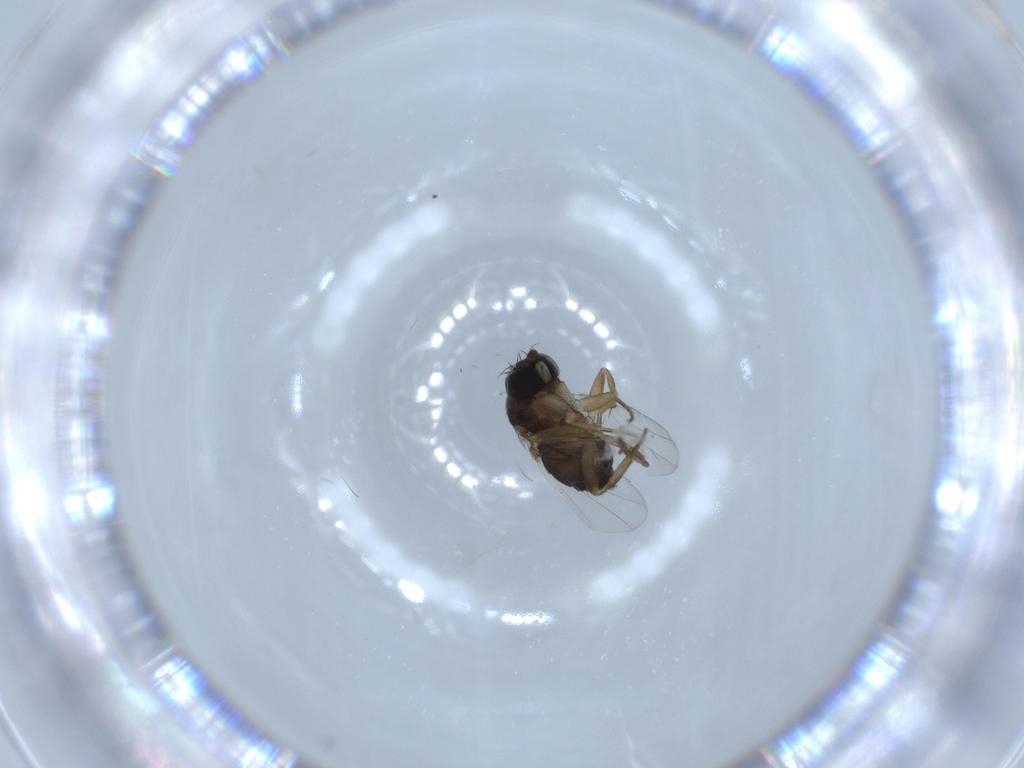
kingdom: Animalia
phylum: Arthropoda
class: Insecta
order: Diptera
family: Phoridae
